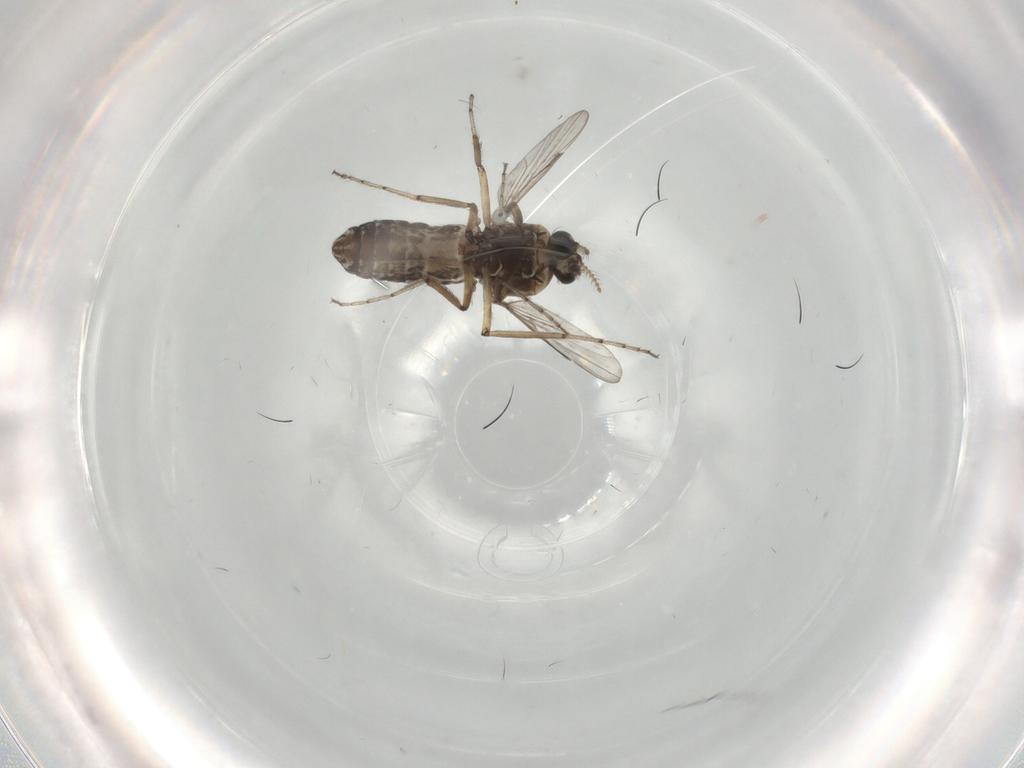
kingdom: Animalia
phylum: Arthropoda
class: Insecta
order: Diptera
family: Ceratopogonidae
